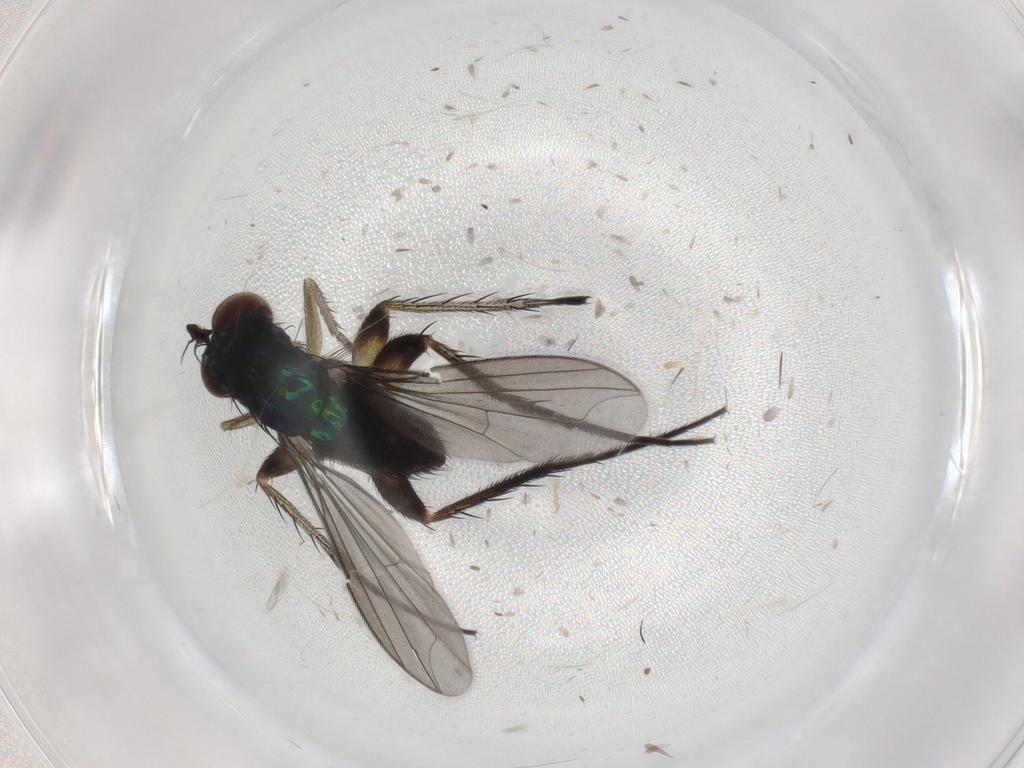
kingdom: Animalia
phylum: Arthropoda
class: Insecta
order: Diptera
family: Dolichopodidae
